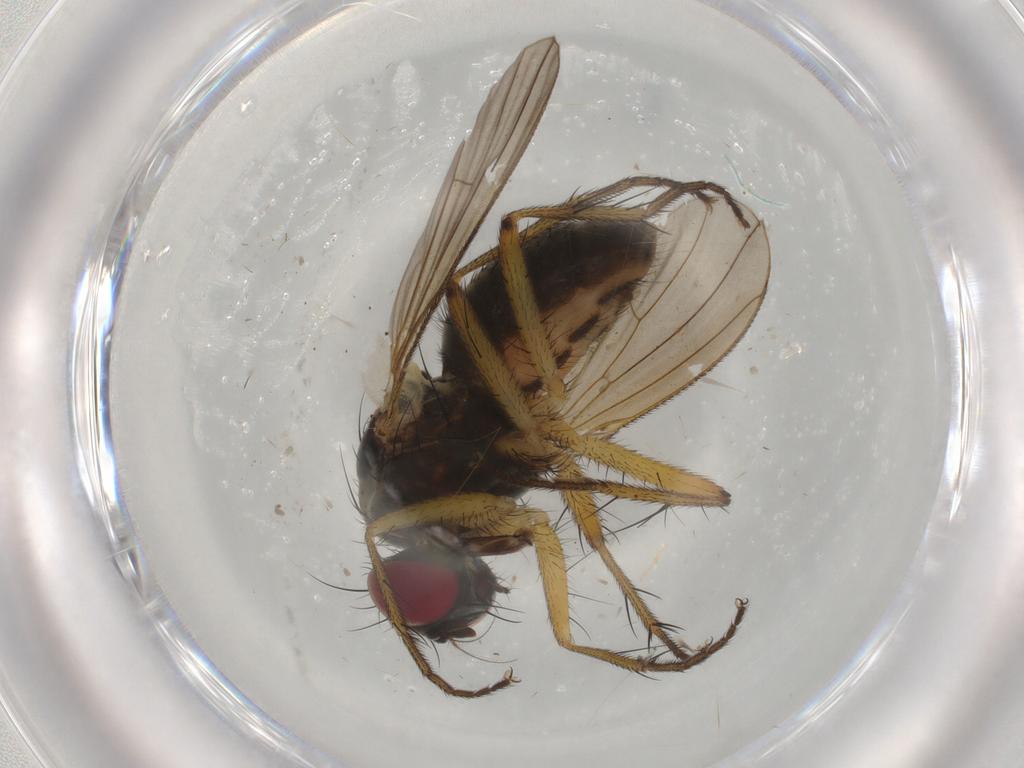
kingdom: Animalia
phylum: Arthropoda
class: Insecta
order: Diptera
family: Muscidae
